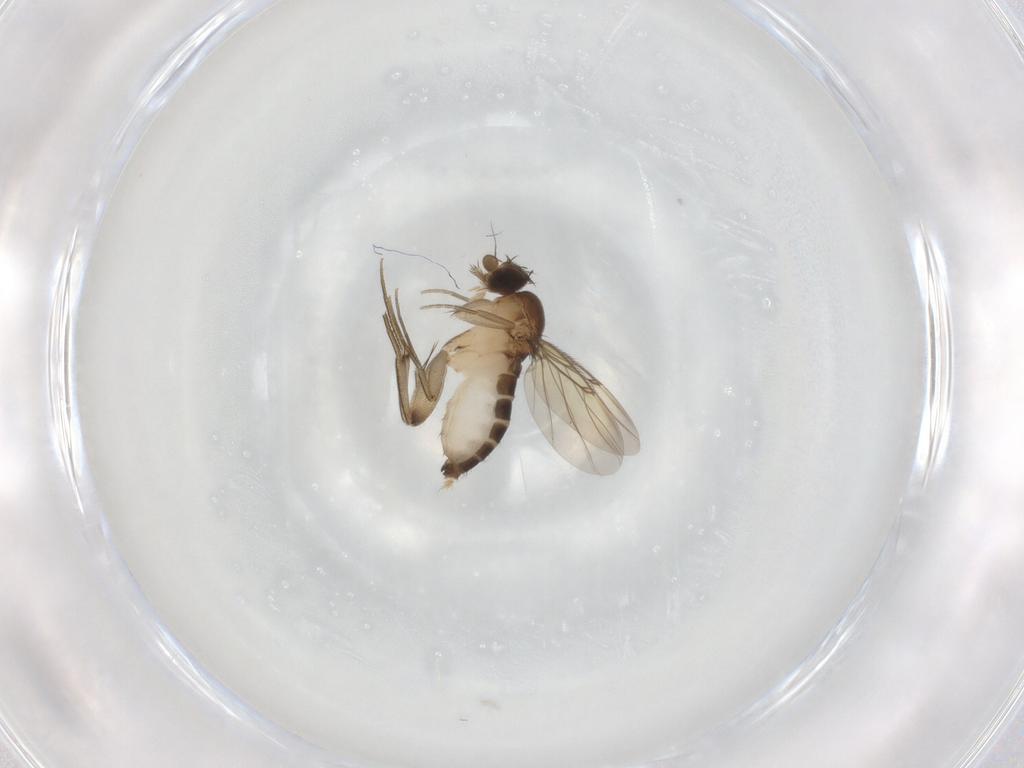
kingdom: Animalia
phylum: Arthropoda
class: Insecta
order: Diptera
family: Phoridae
